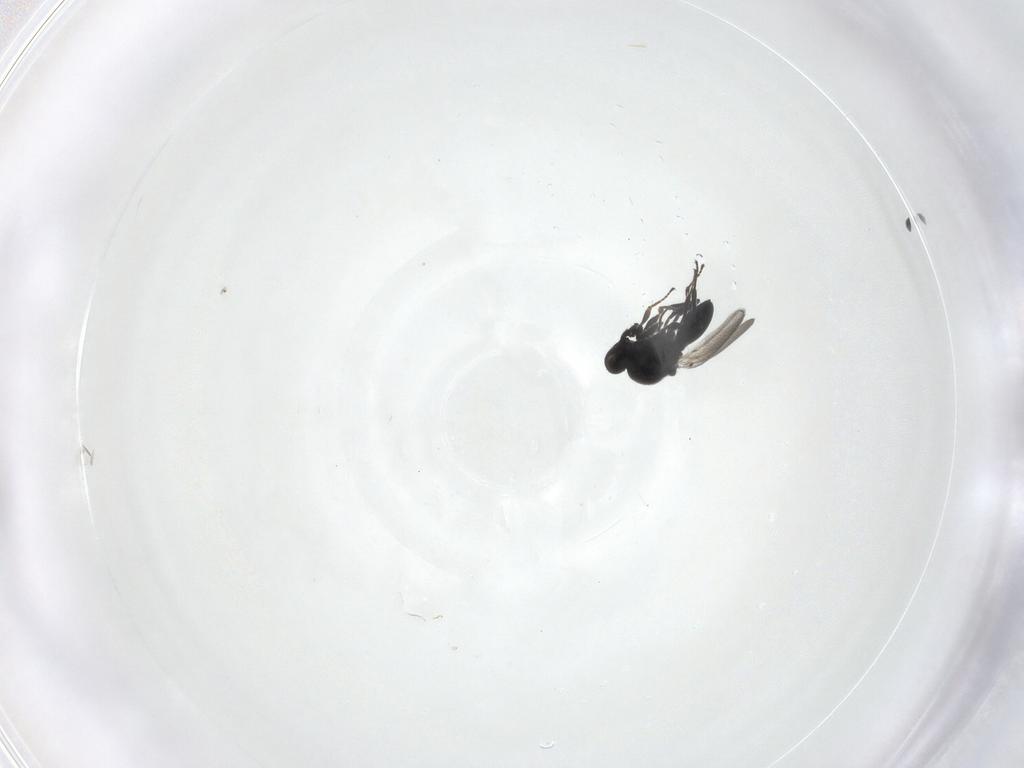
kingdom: Animalia
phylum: Arthropoda
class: Insecta
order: Hymenoptera
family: Platygastridae
